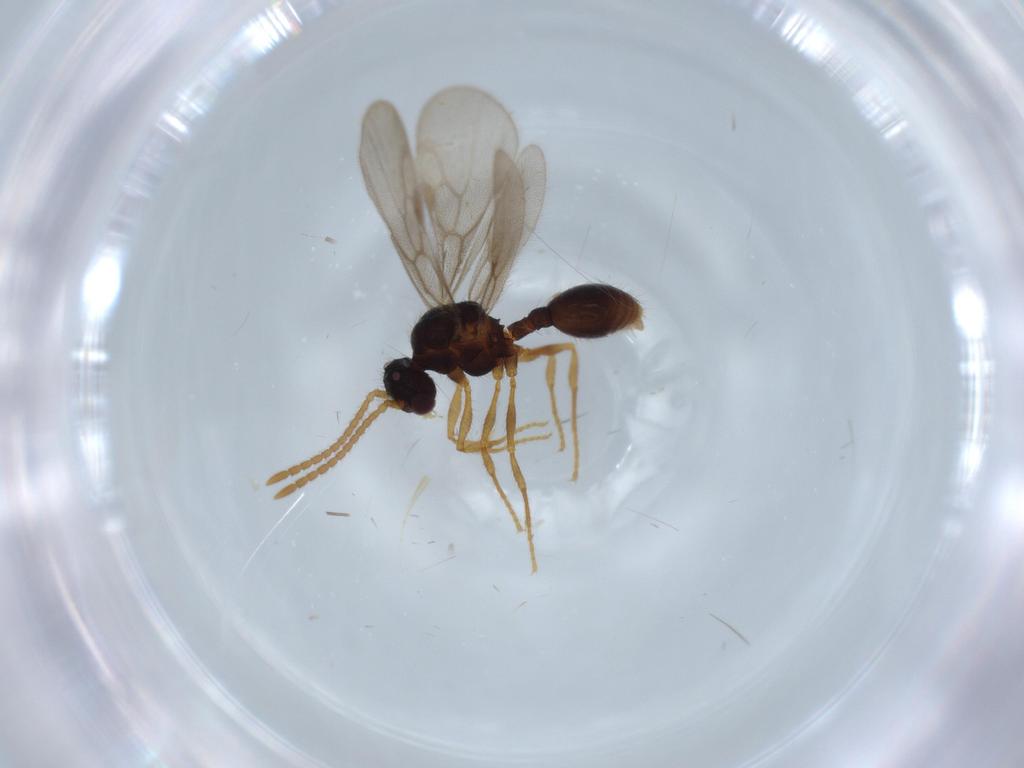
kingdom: Animalia
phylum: Arthropoda
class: Insecta
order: Hymenoptera
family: Formicidae
